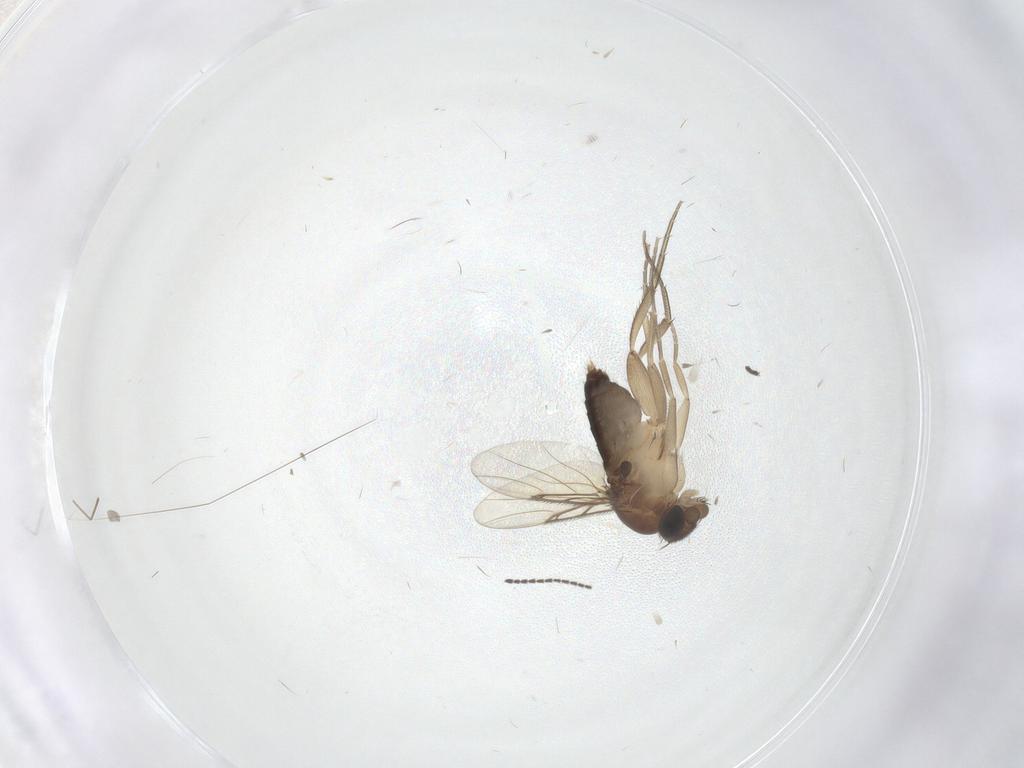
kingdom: Animalia
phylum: Arthropoda
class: Insecta
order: Diptera
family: Phoridae
